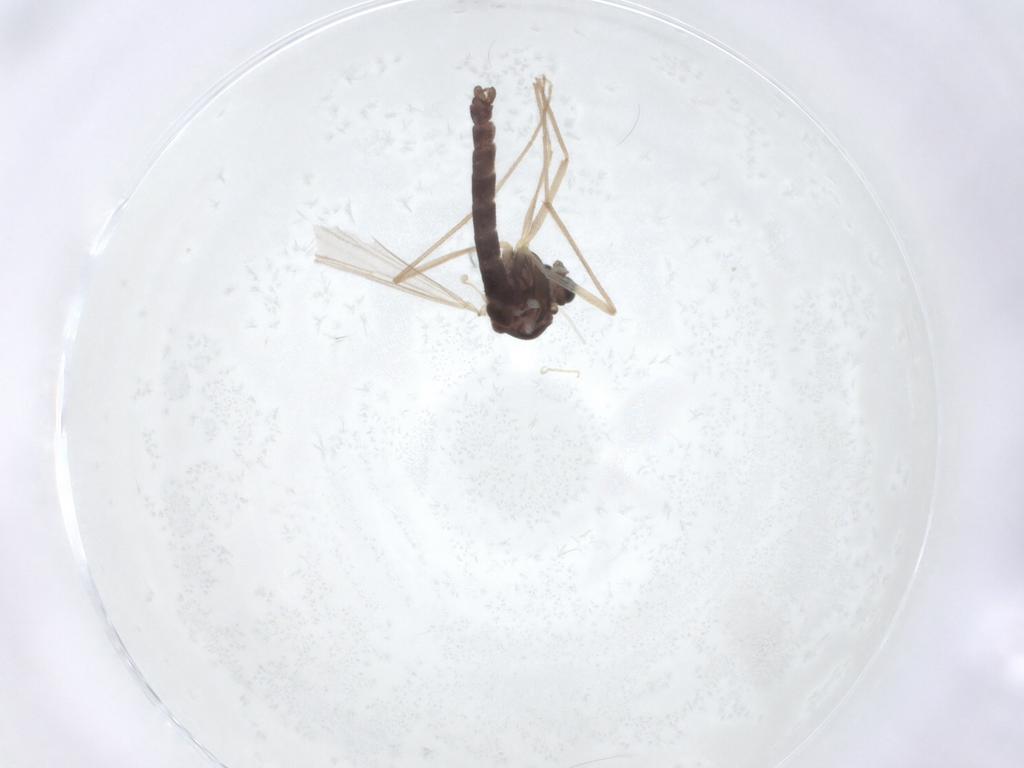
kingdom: Animalia
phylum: Arthropoda
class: Insecta
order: Diptera
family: Chironomidae
